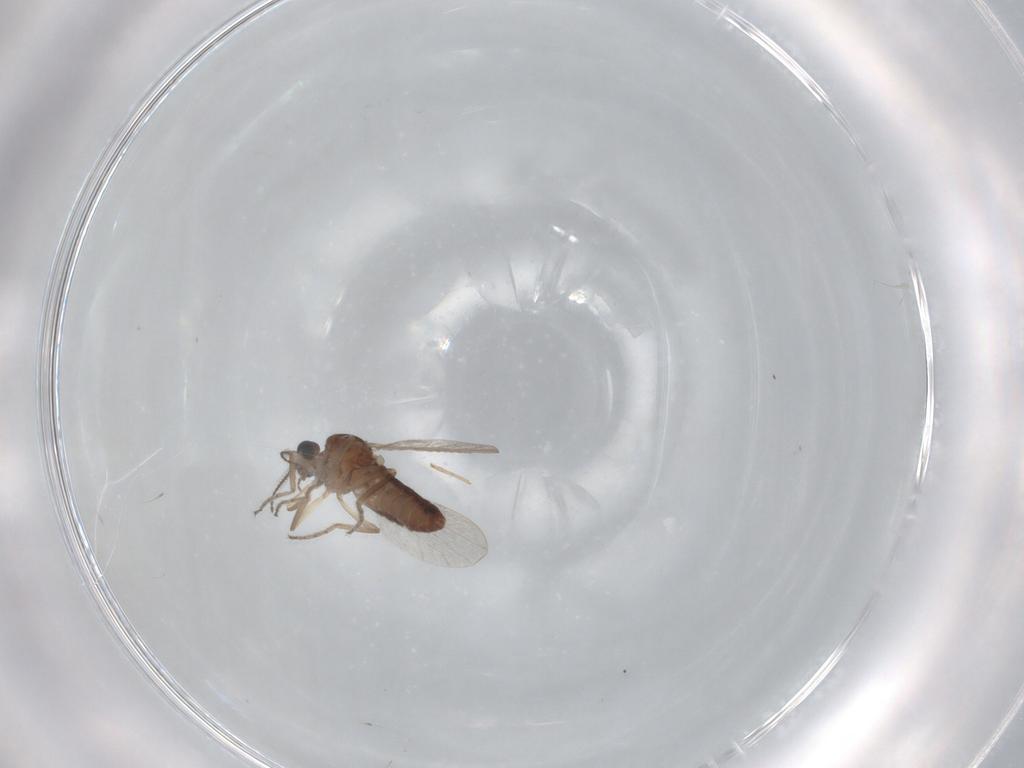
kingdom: Animalia
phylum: Arthropoda
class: Insecta
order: Diptera
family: Ceratopogonidae
